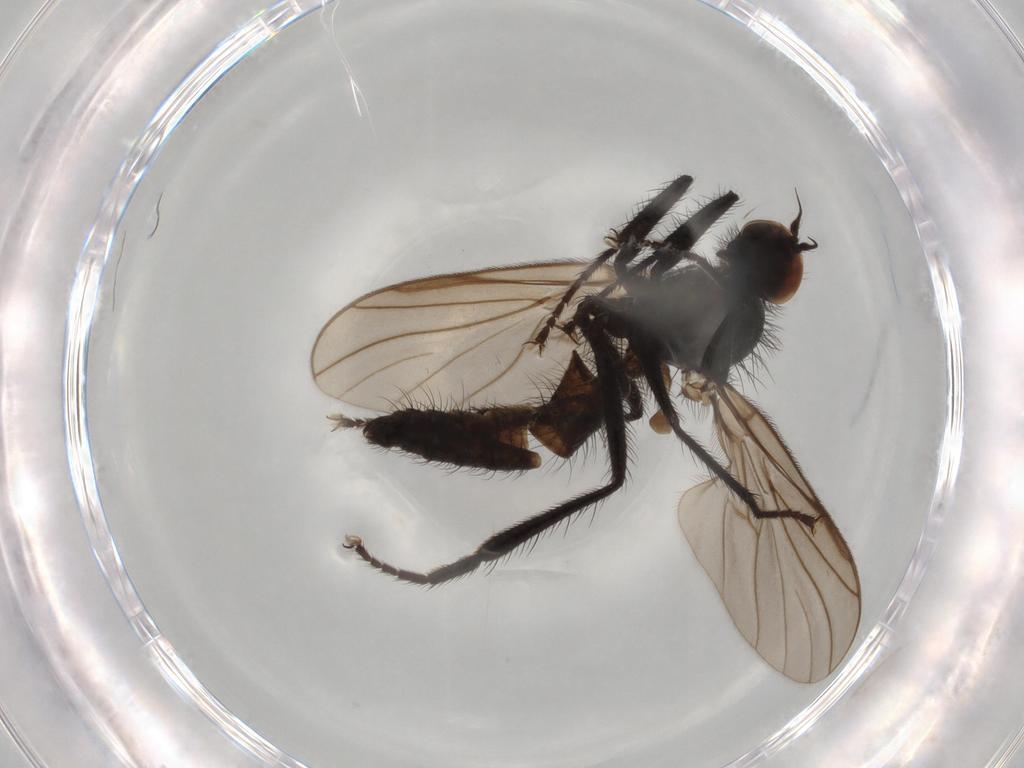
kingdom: Animalia
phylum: Arthropoda
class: Insecta
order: Diptera
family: Hybotidae
